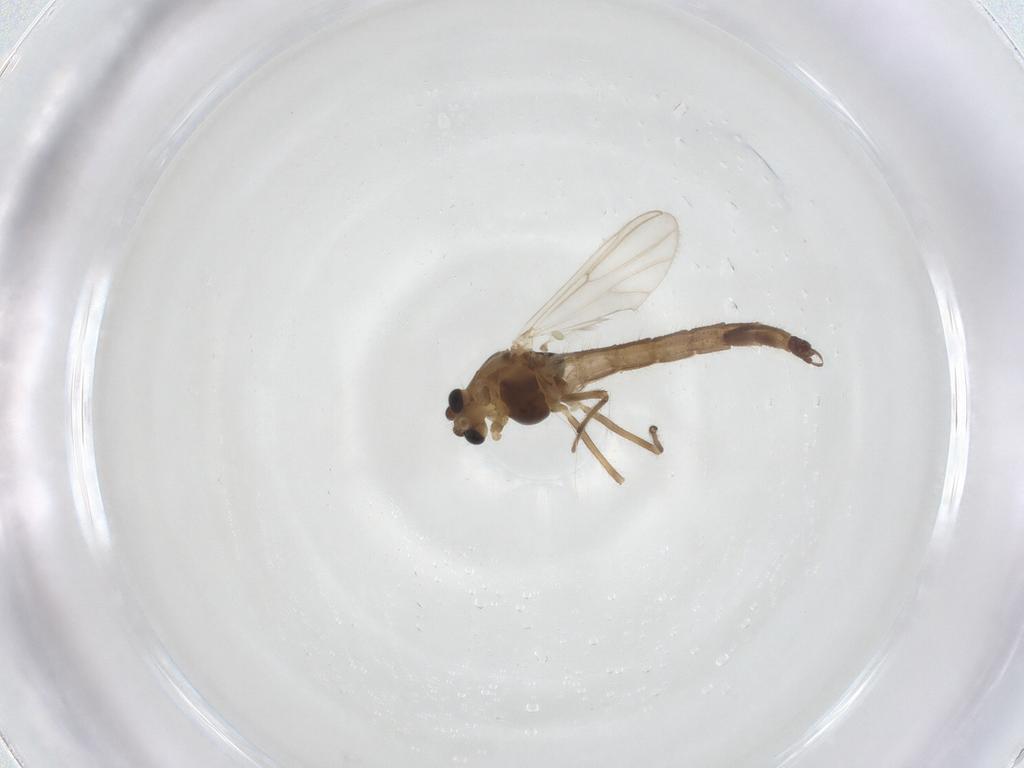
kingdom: Animalia
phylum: Arthropoda
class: Insecta
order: Diptera
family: Chironomidae
